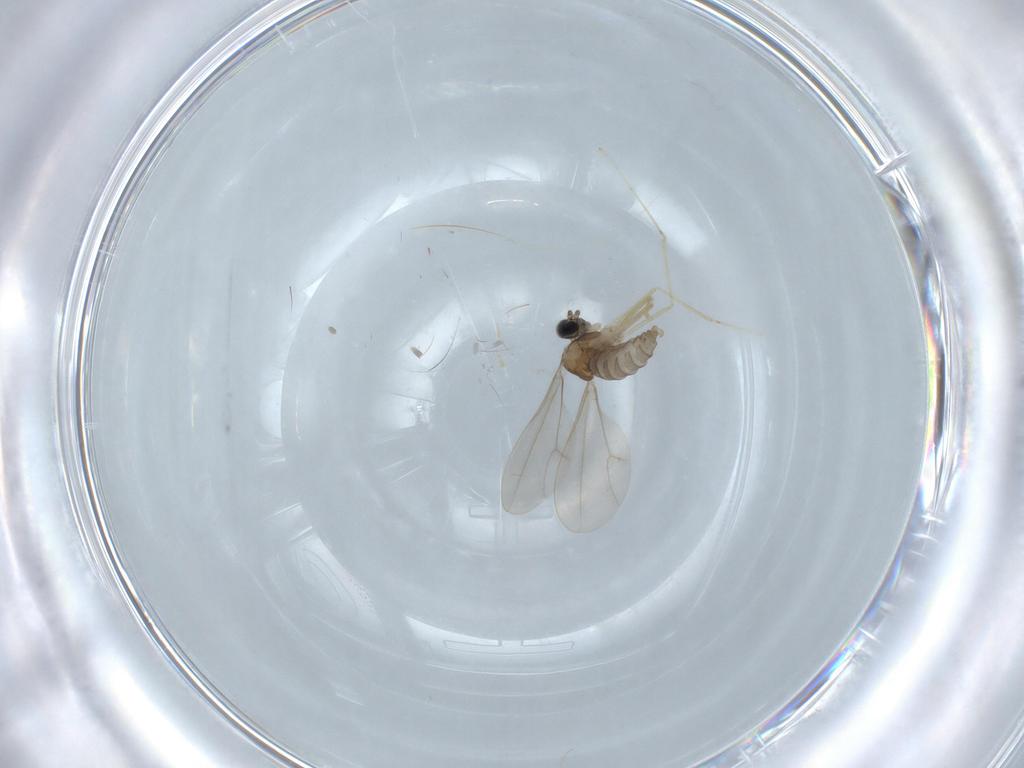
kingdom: Animalia
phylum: Arthropoda
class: Insecta
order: Diptera
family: Cecidomyiidae
